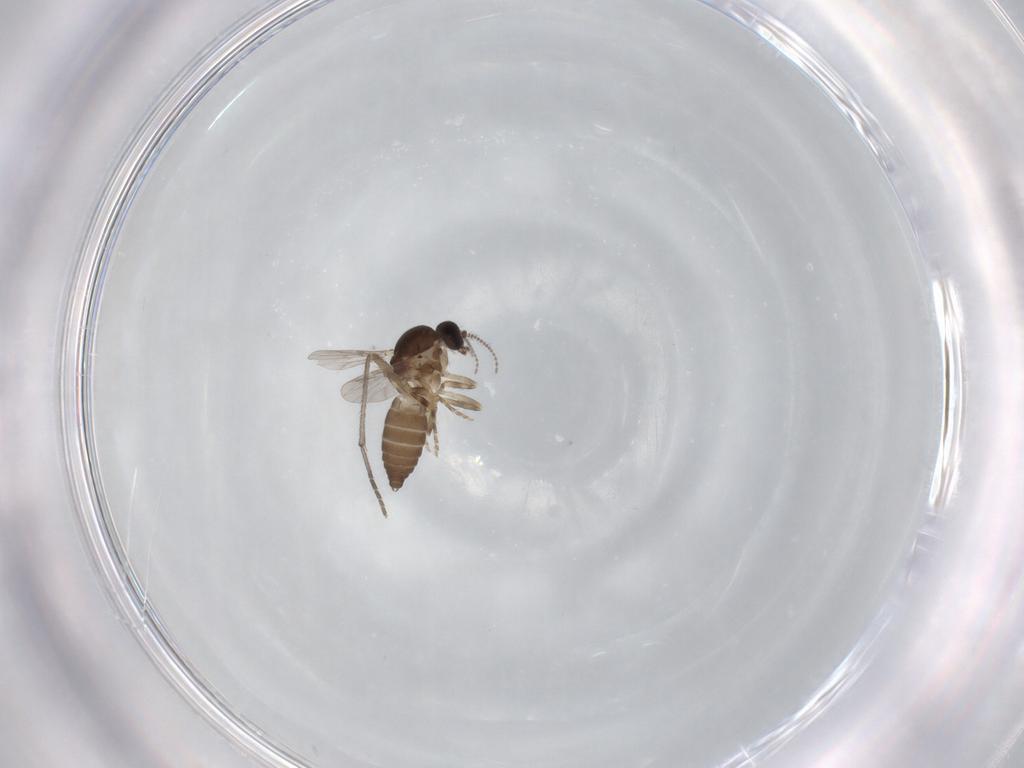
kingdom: Animalia
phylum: Arthropoda
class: Insecta
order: Diptera
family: Ceratopogonidae
